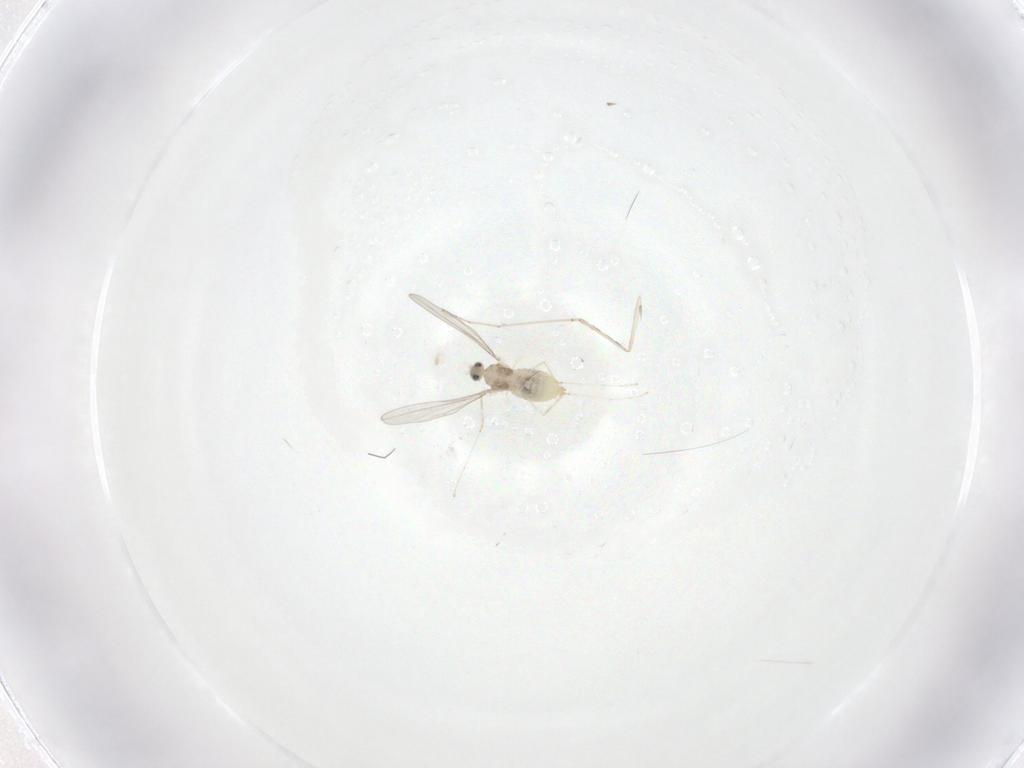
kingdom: Animalia
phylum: Arthropoda
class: Insecta
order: Diptera
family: Cecidomyiidae
